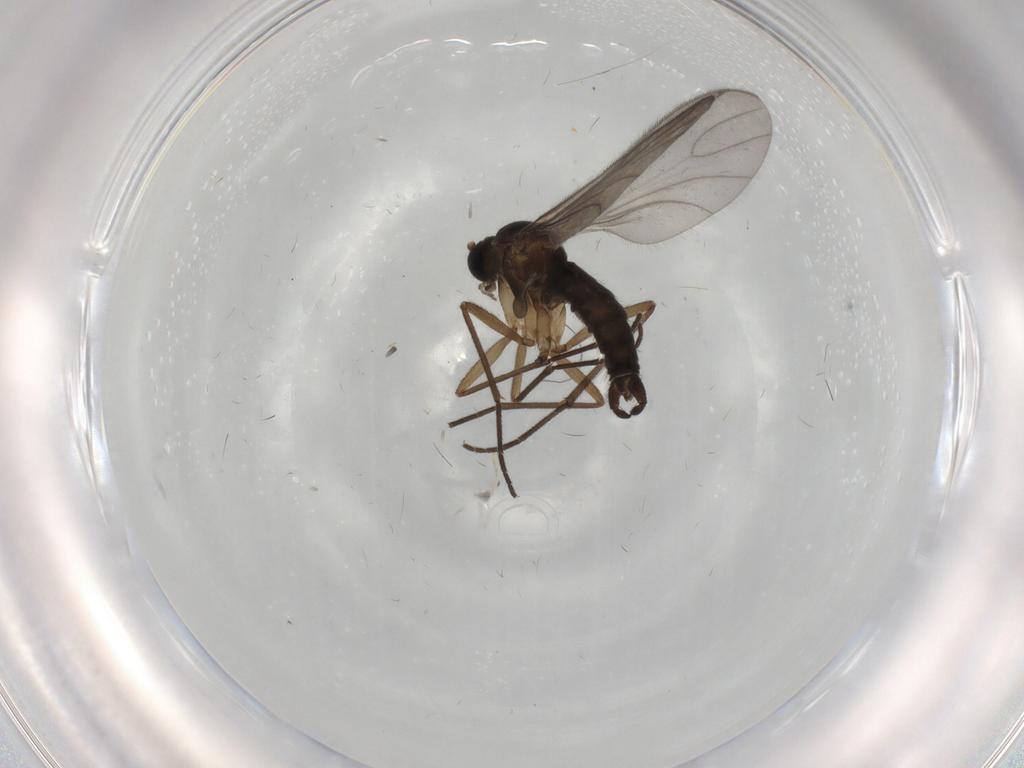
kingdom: Animalia
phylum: Arthropoda
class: Insecta
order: Diptera
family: Sciaridae
